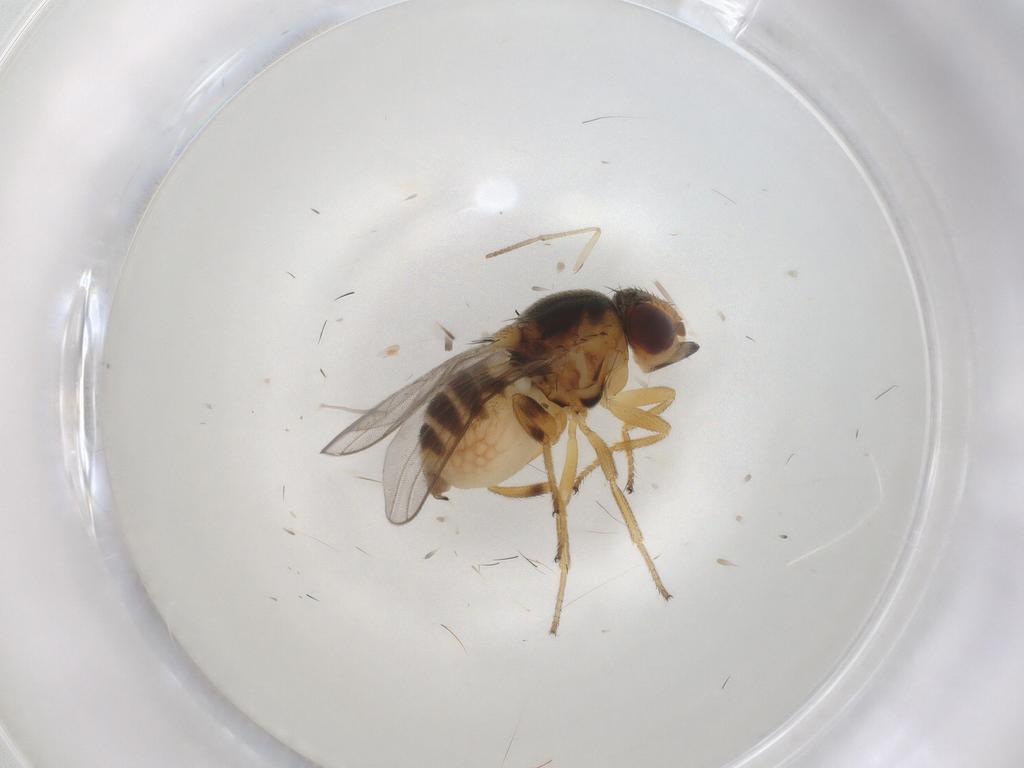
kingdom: Animalia
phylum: Arthropoda
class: Insecta
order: Diptera
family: Chloropidae
